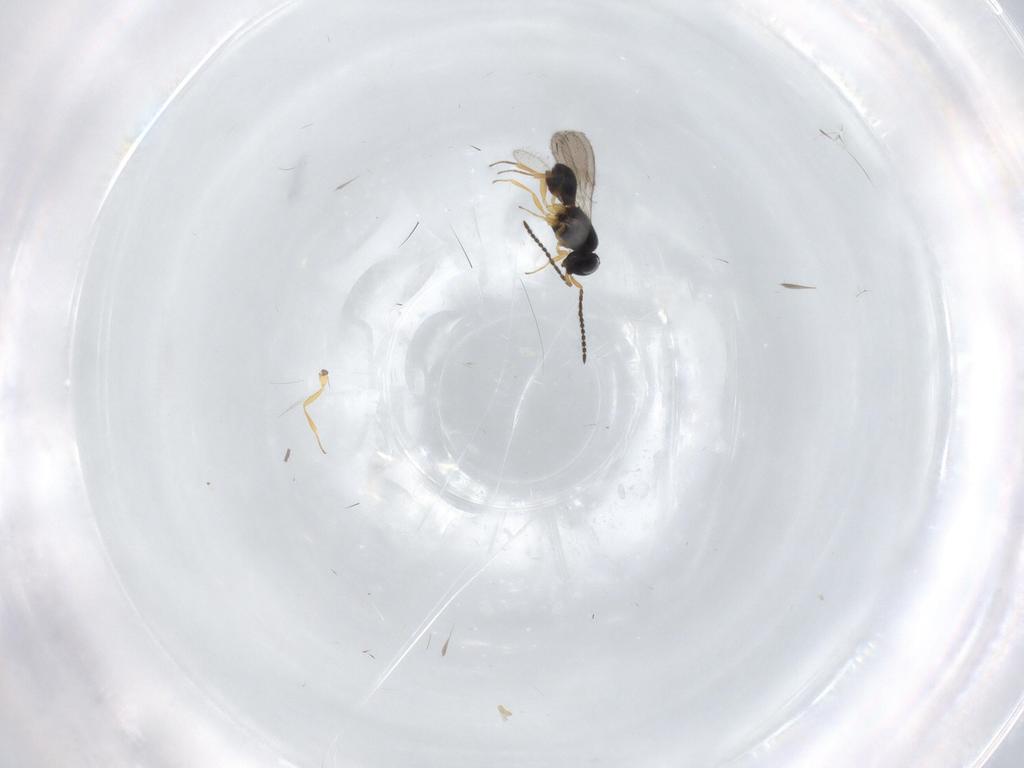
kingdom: Animalia
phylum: Arthropoda
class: Insecta
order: Hymenoptera
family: Scelionidae
